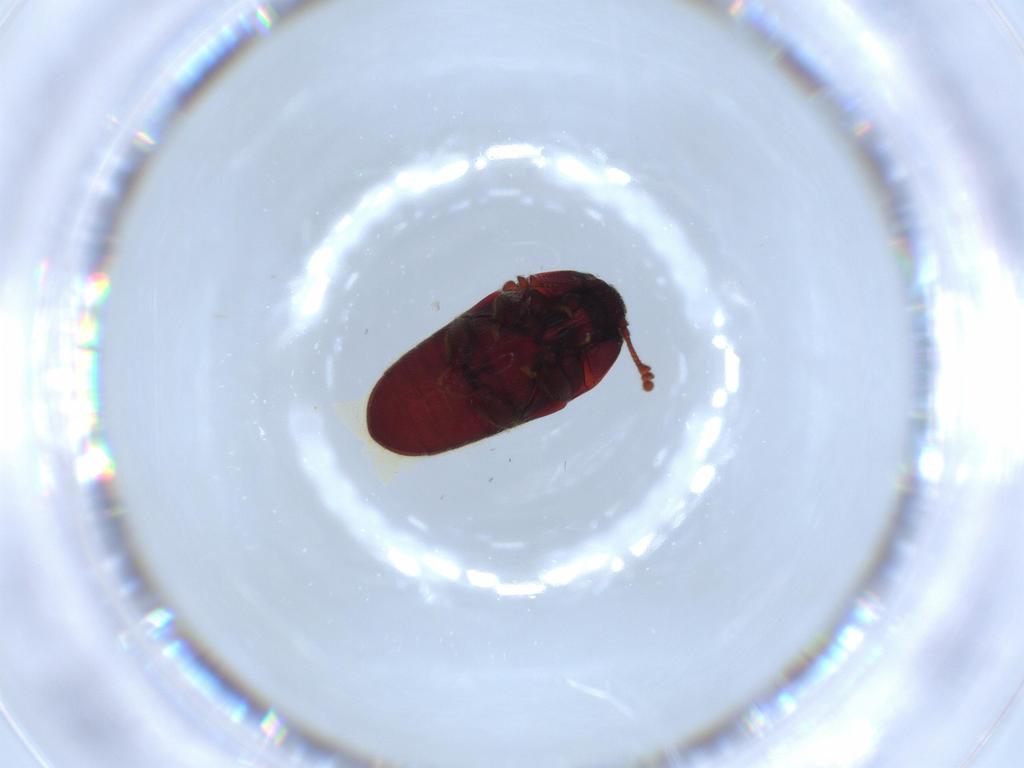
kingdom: Animalia
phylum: Arthropoda
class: Insecta
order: Coleoptera
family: Throscidae
